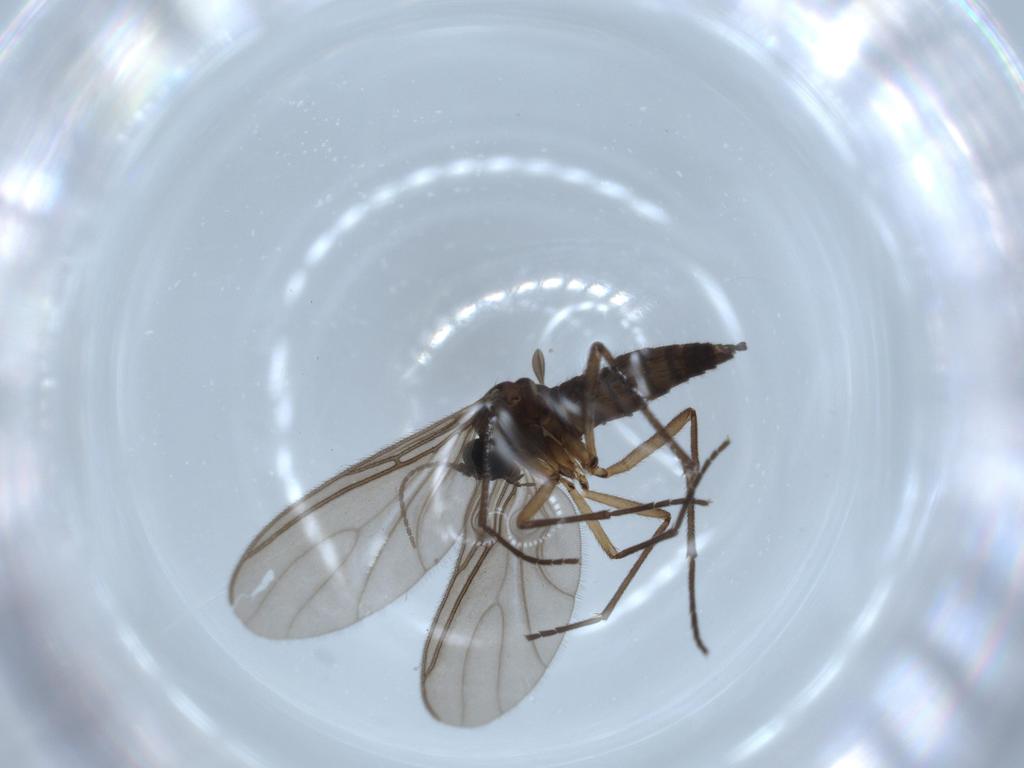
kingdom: Animalia
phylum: Arthropoda
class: Insecta
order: Diptera
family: Sciaridae
